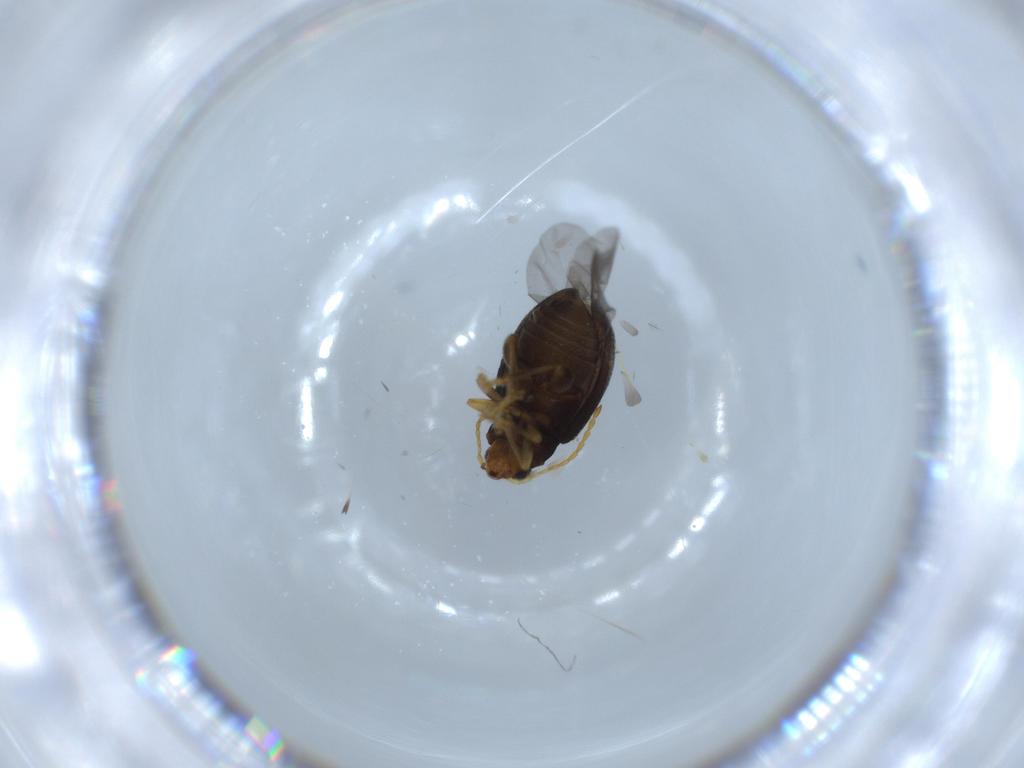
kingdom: Animalia
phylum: Arthropoda
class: Insecta
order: Coleoptera
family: Chrysomelidae
